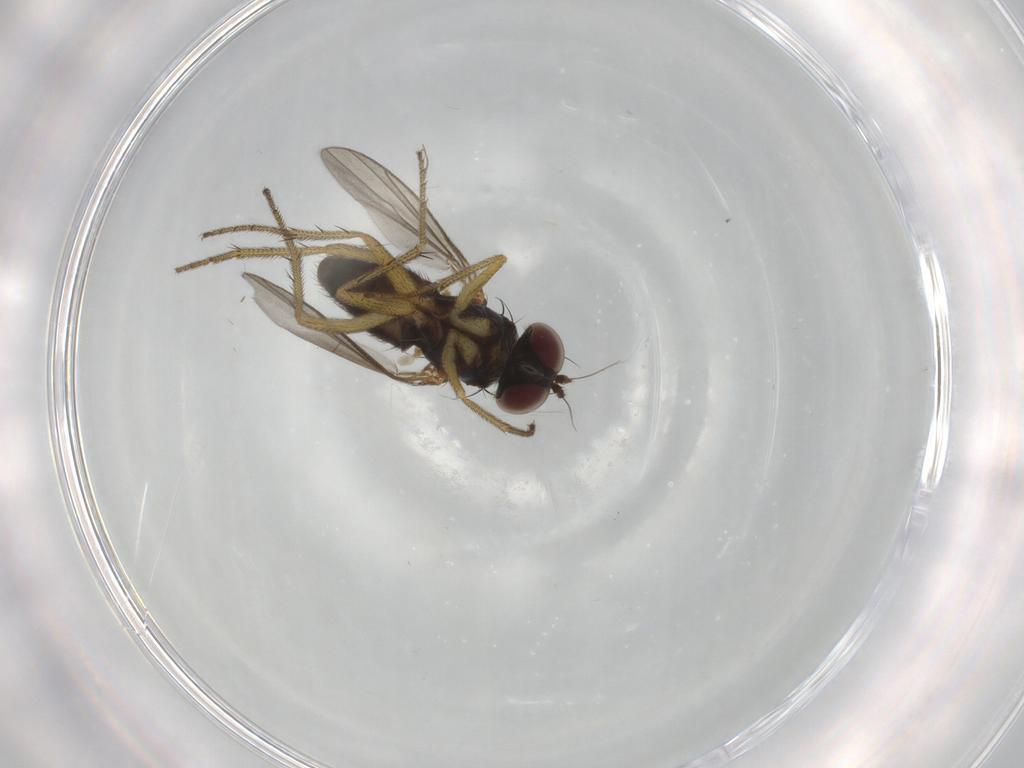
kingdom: Animalia
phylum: Arthropoda
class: Insecta
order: Diptera
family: Dolichopodidae
